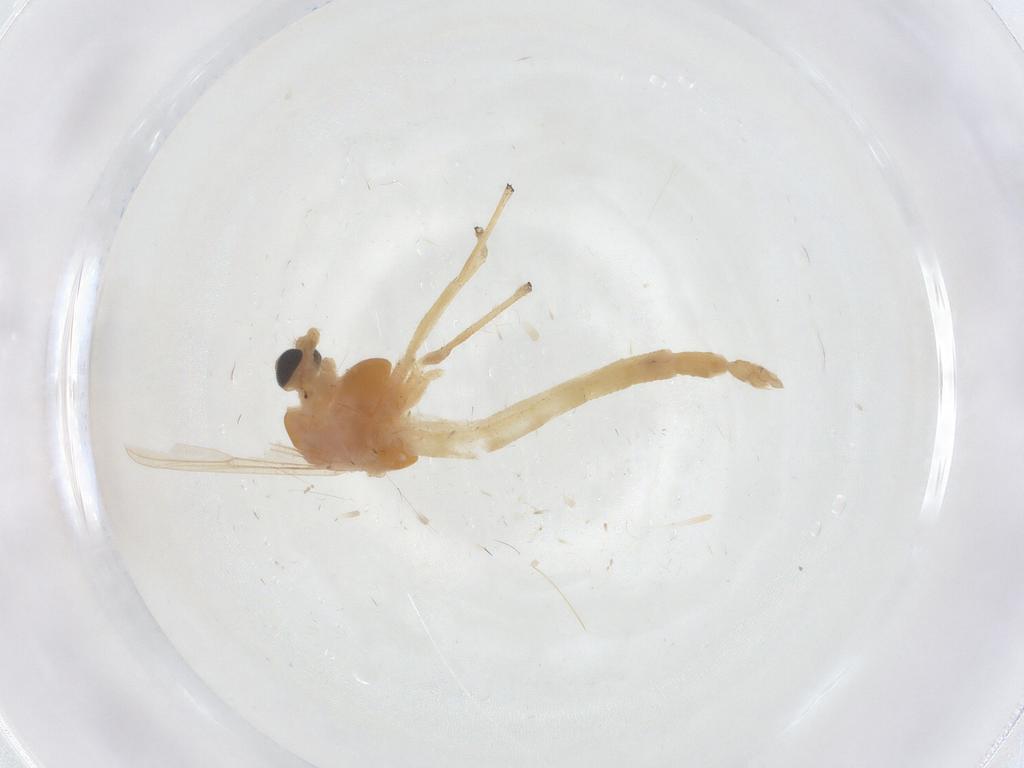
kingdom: Animalia
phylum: Arthropoda
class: Insecta
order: Diptera
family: Chironomidae
